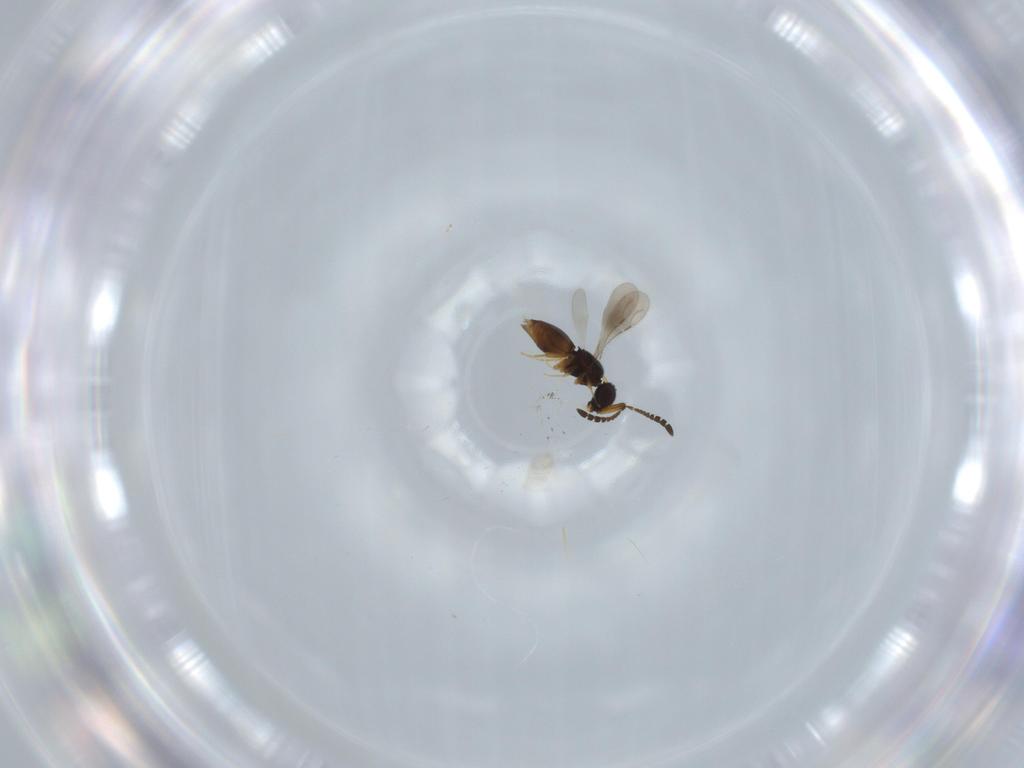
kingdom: Animalia
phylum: Arthropoda
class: Insecta
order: Hymenoptera
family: Ceraphronidae
